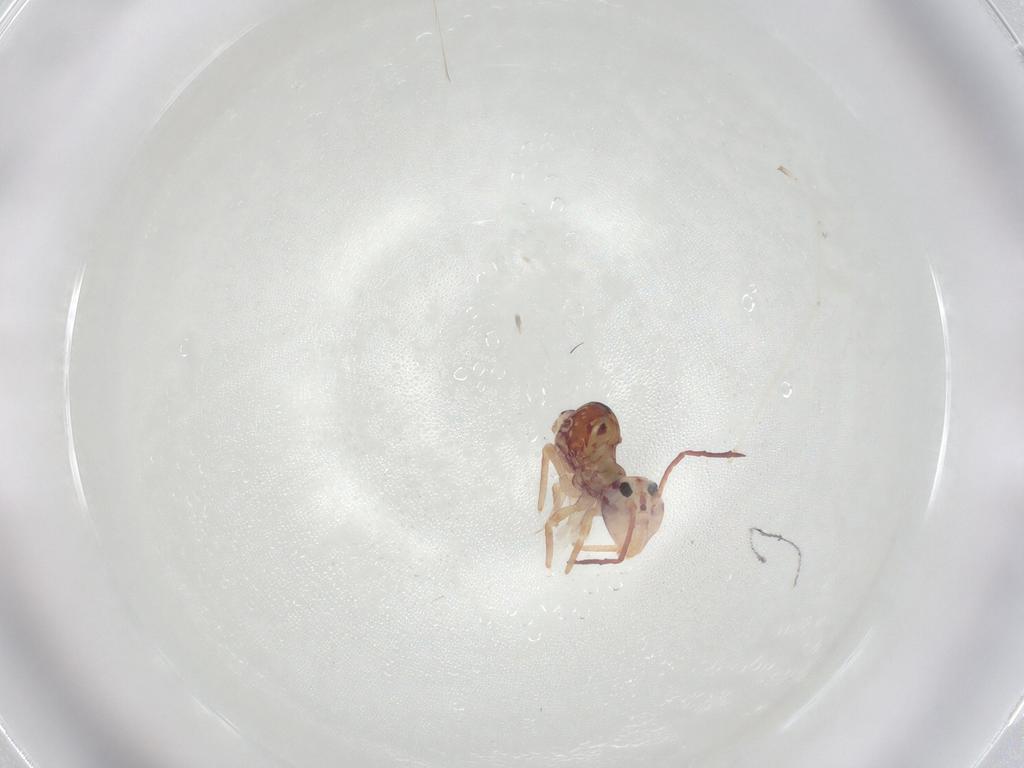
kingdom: Animalia
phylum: Arthropoda
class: Collembola
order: Symphypleona
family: Dicyrtomidae
